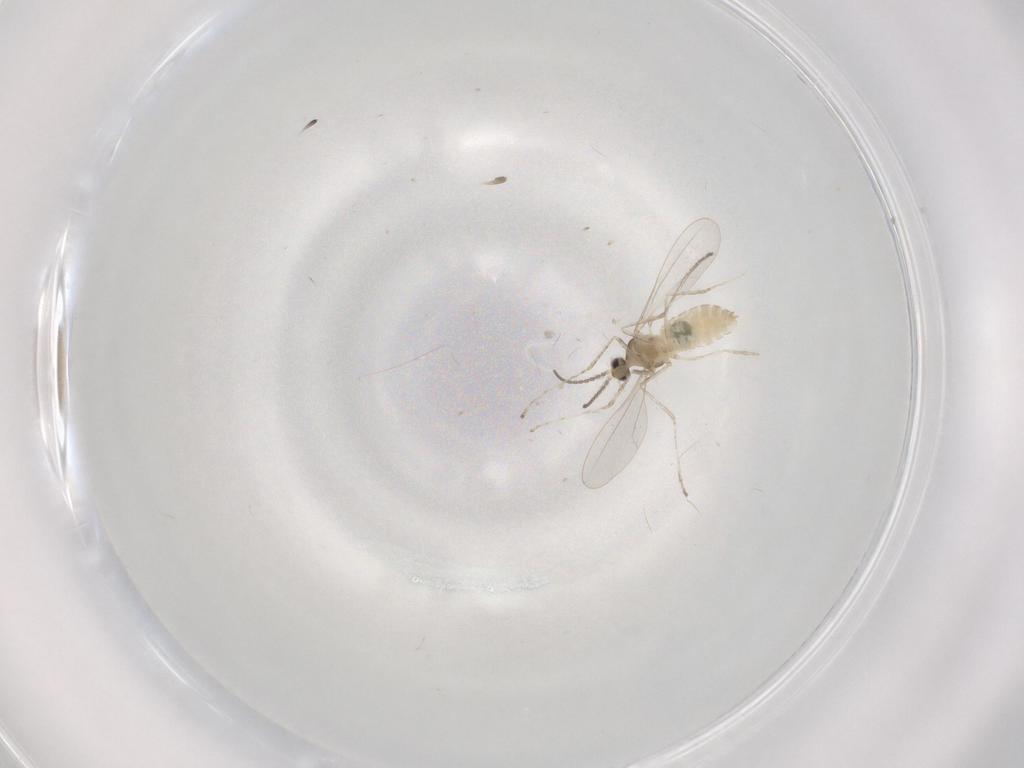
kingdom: Animalia
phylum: Arthropoda
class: Insecta
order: Diptera
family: Cecidomyiidae
